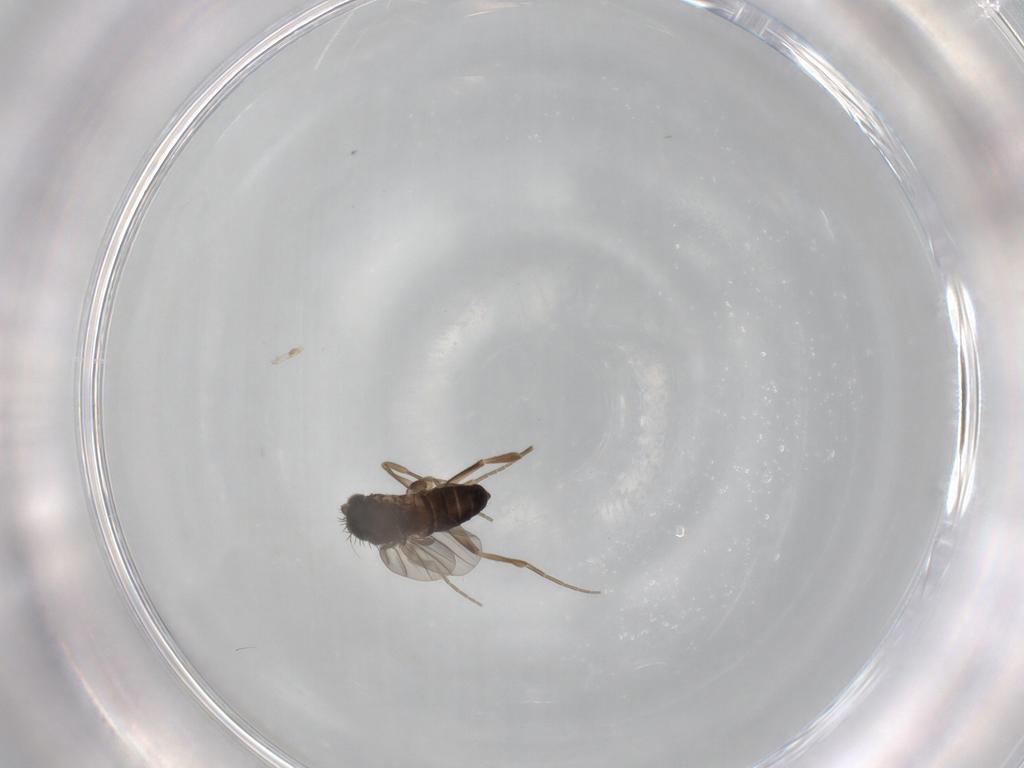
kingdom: Animalia
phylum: Arthropoda
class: Insecta
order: Diptera
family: Phoridae
